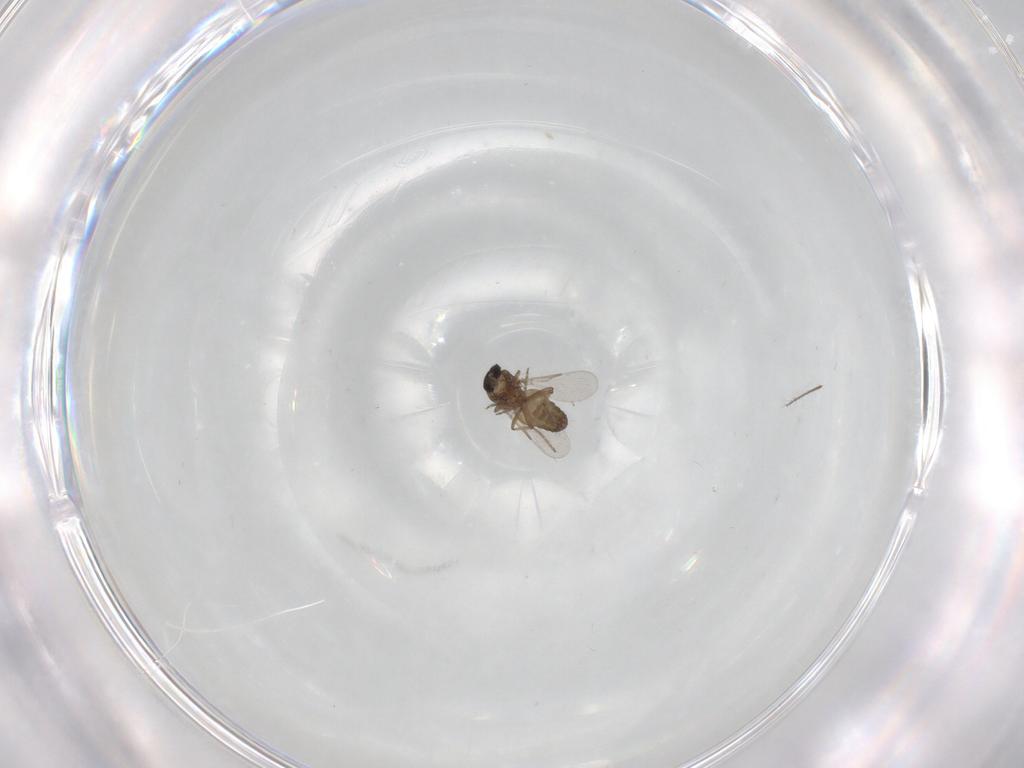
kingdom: Animalia
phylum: Arthropoda
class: Insecta
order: Diptera
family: Ceratopogonidae
